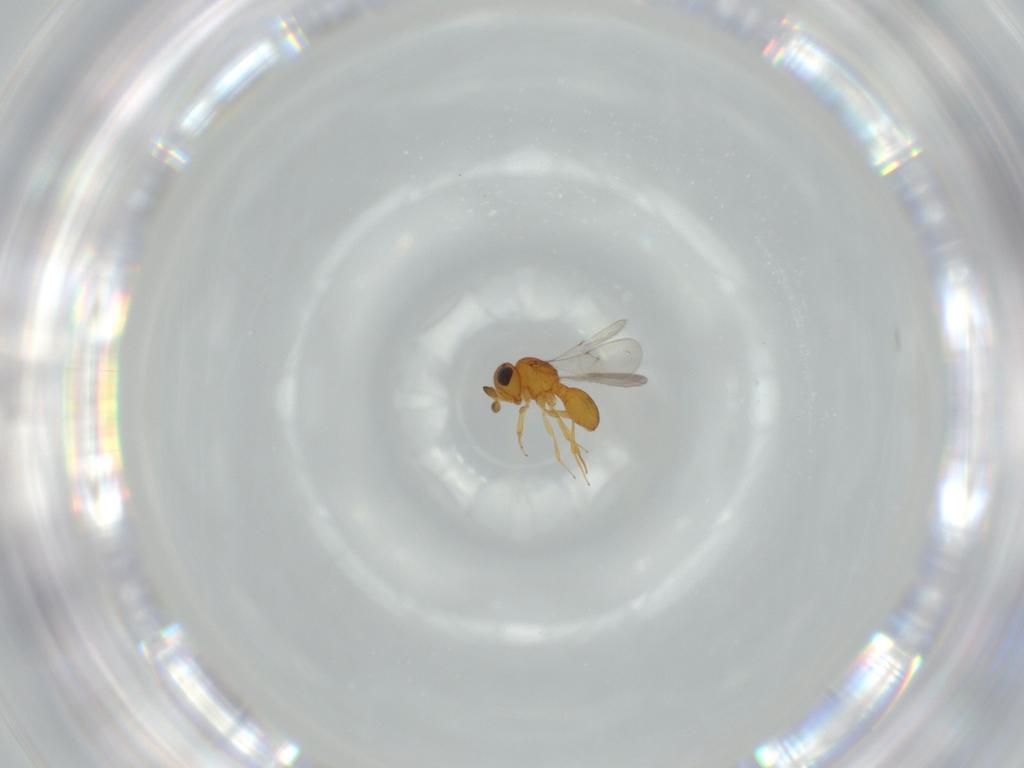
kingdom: Animalia
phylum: Arthropoda
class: Insecta
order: Hymenoptera
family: Scelionidae
